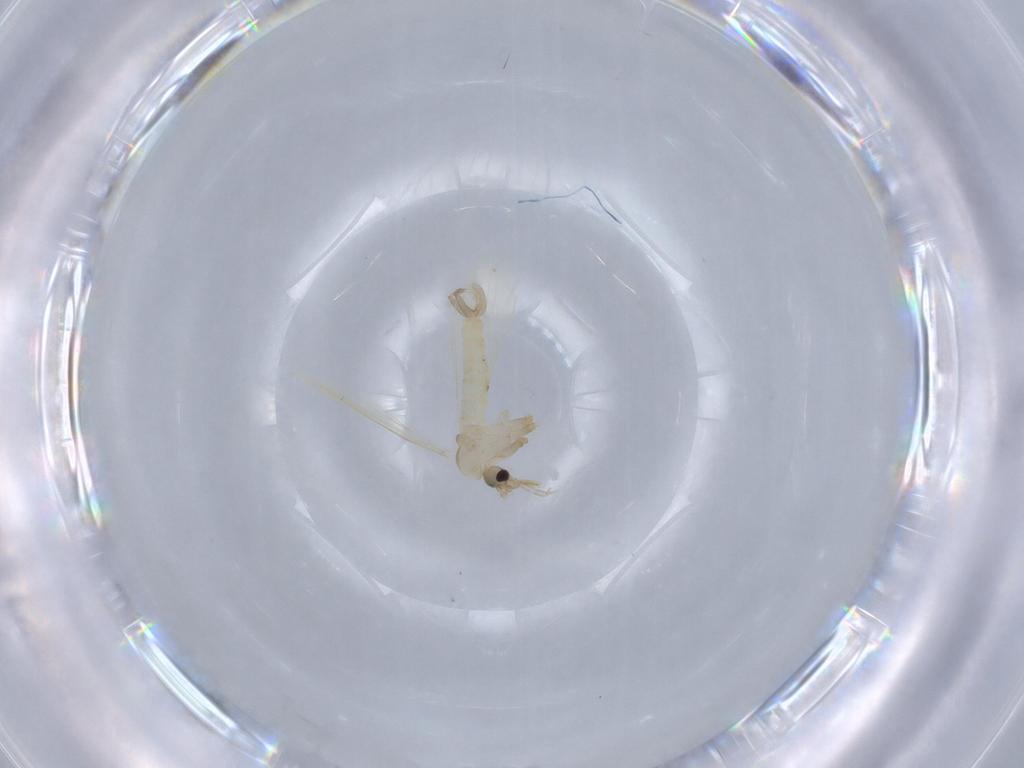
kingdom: Animalia
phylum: Arthropoda
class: Insecta
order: Diptera
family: Psychodidae
